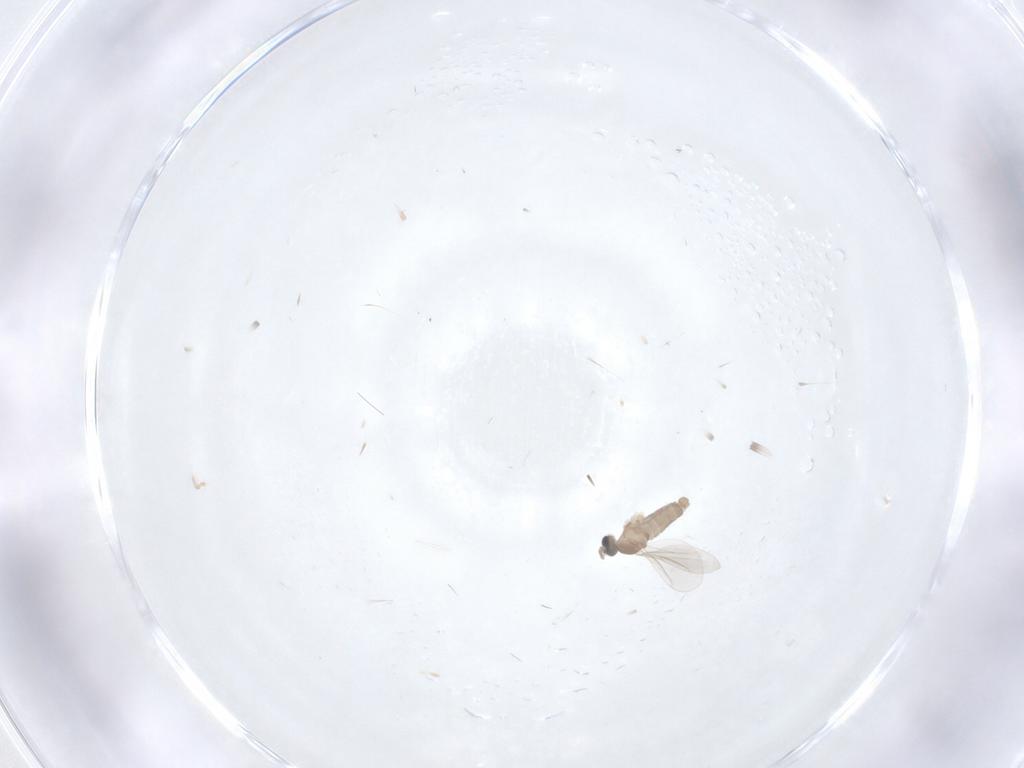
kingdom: Animalia
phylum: Arthropoda
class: Insecta
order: Diptera
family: Cecidomyiidae
